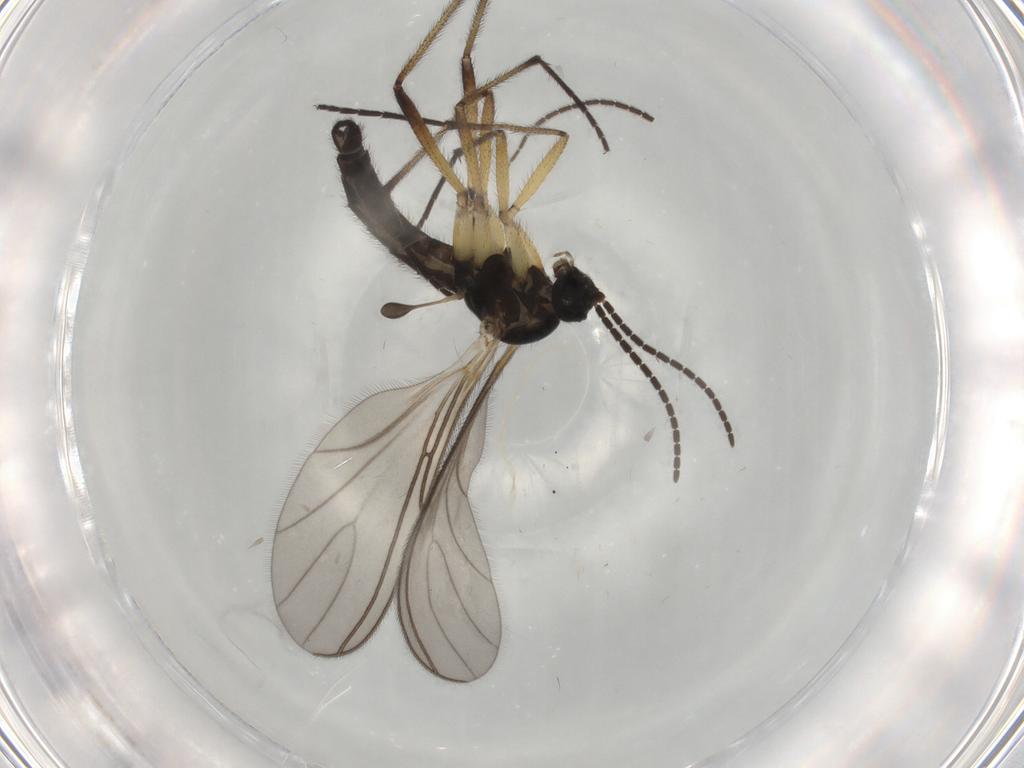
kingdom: Animalia
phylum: Arthropoda
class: Insecta
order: Diptera
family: Sciaridae
